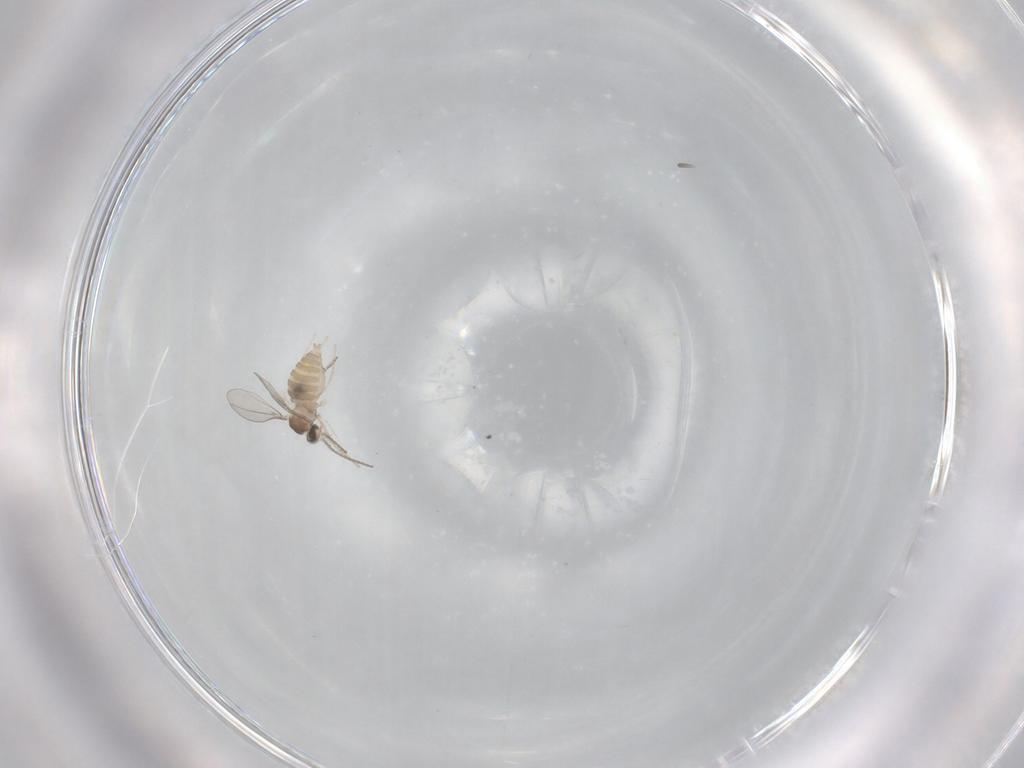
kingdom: Animalia
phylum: Arthropoda
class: Insecta
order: Diptera
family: Cecidomyiidae
